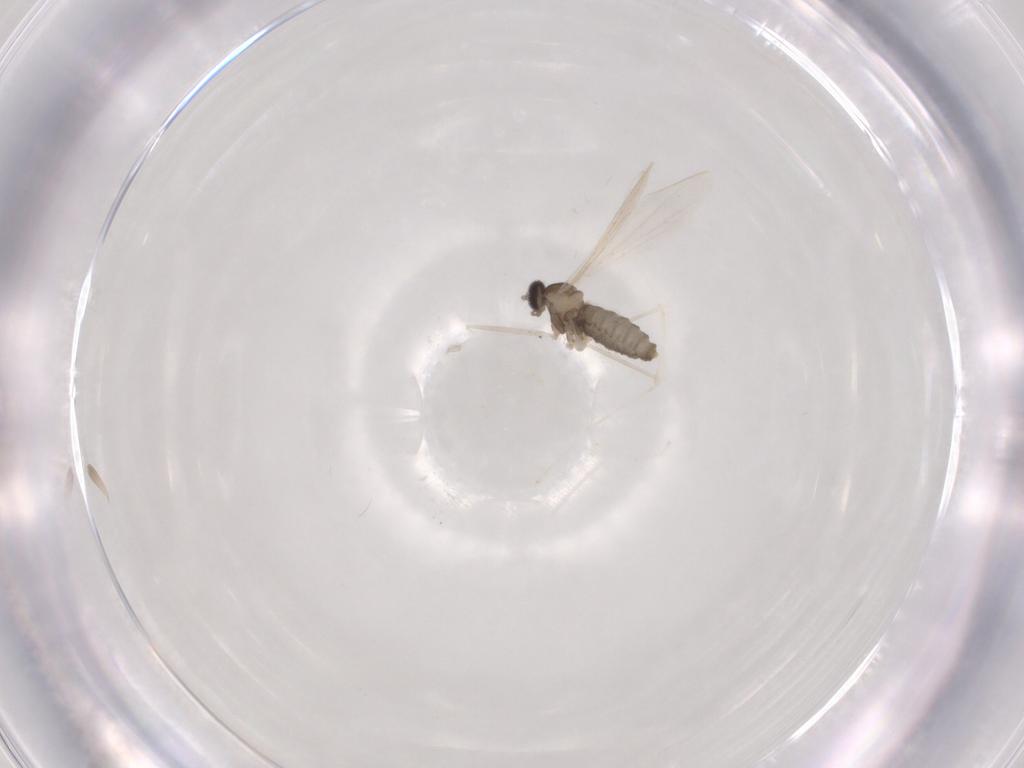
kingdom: Animalia
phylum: Arthropoda
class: Insecta
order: Diptera
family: Cecidomyiidae
